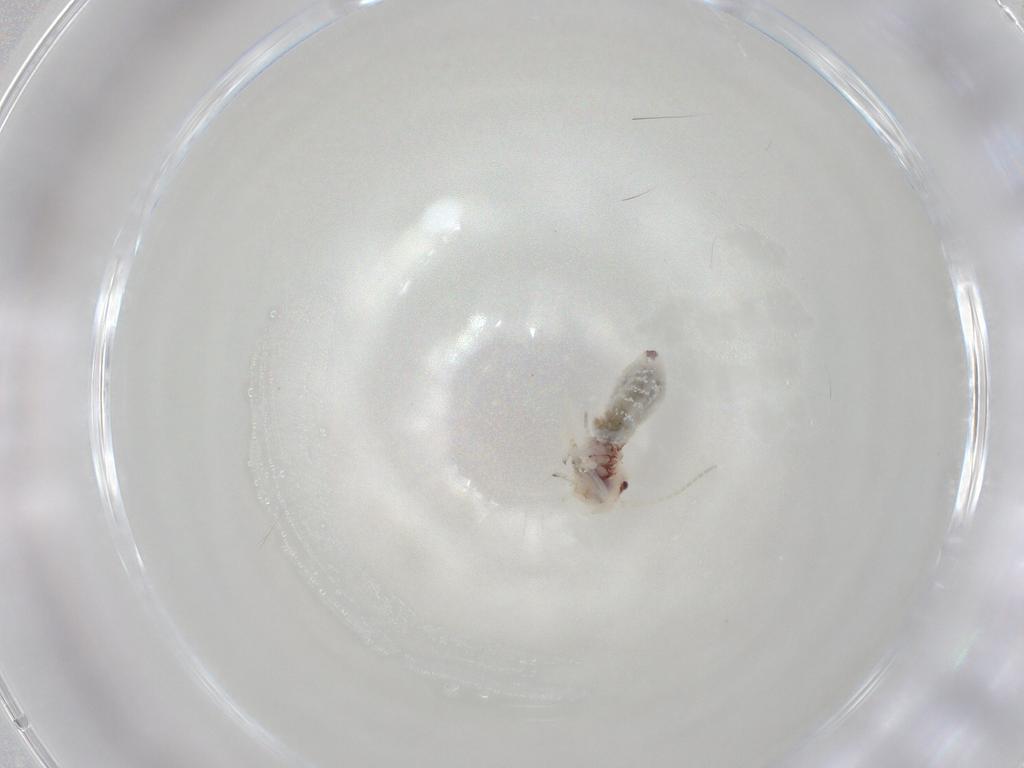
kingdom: Animalia
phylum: Arthropoda
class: Insecta
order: Psocodea
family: Amphipsocidae
